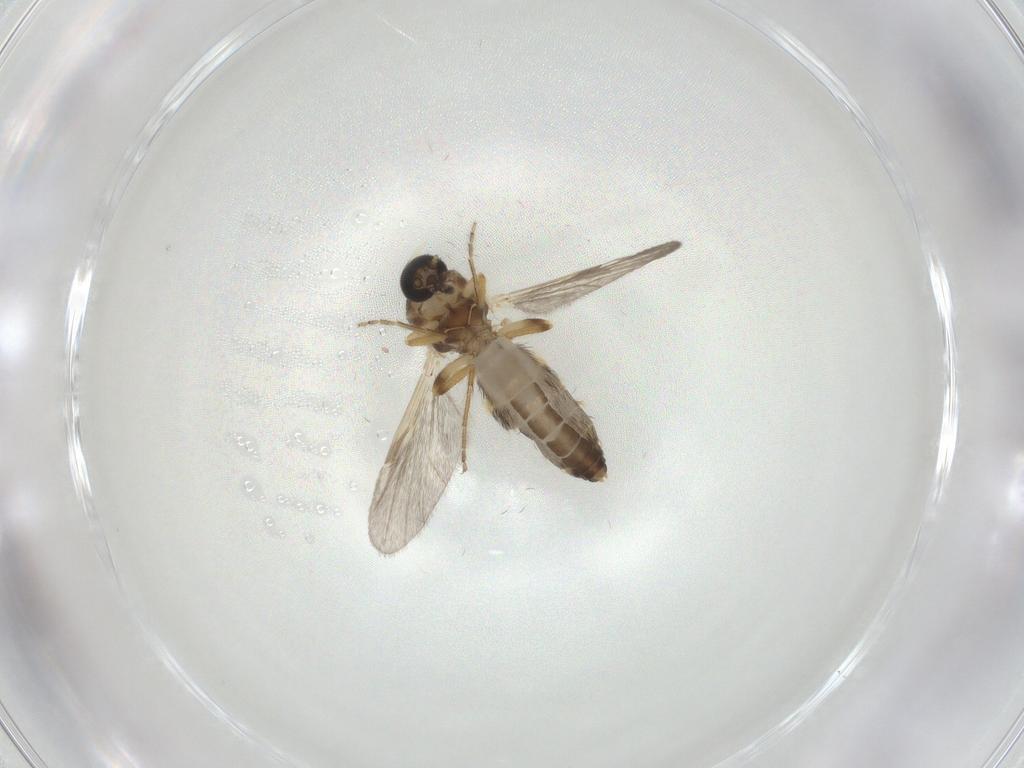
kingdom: Animalia
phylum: Arthropoda
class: Insecta
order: Diptera
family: Ceratopogonidae
